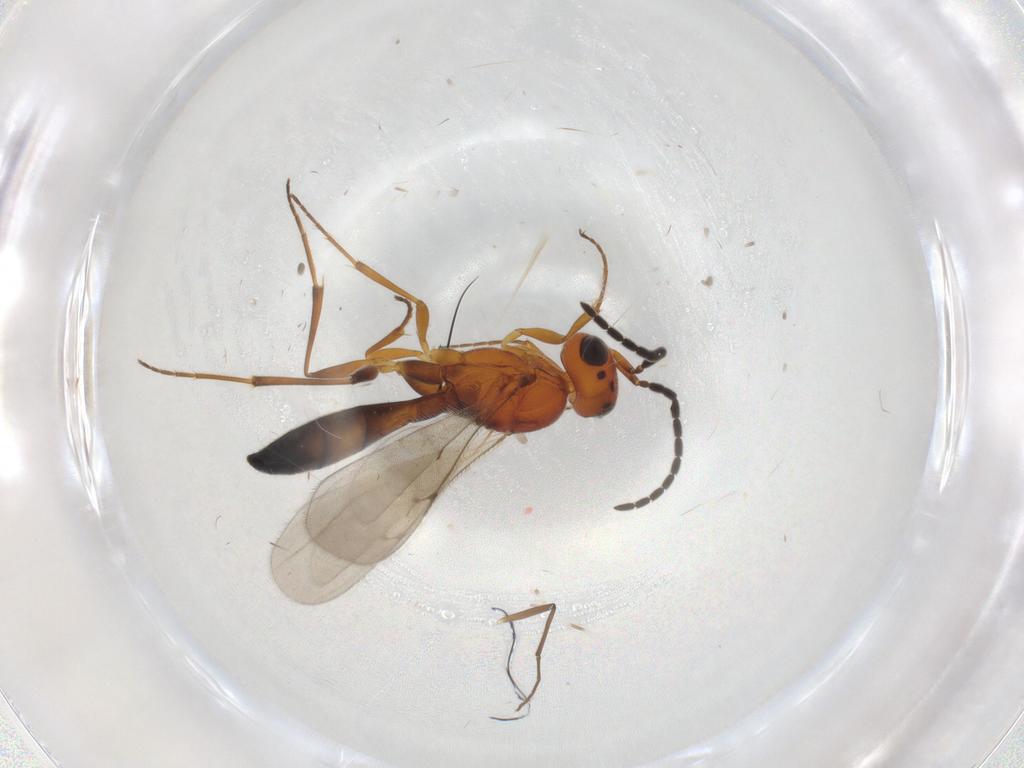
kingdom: Animalia
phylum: Arthropoda
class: Insecta
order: Hymenoptera
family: Scelionidae
